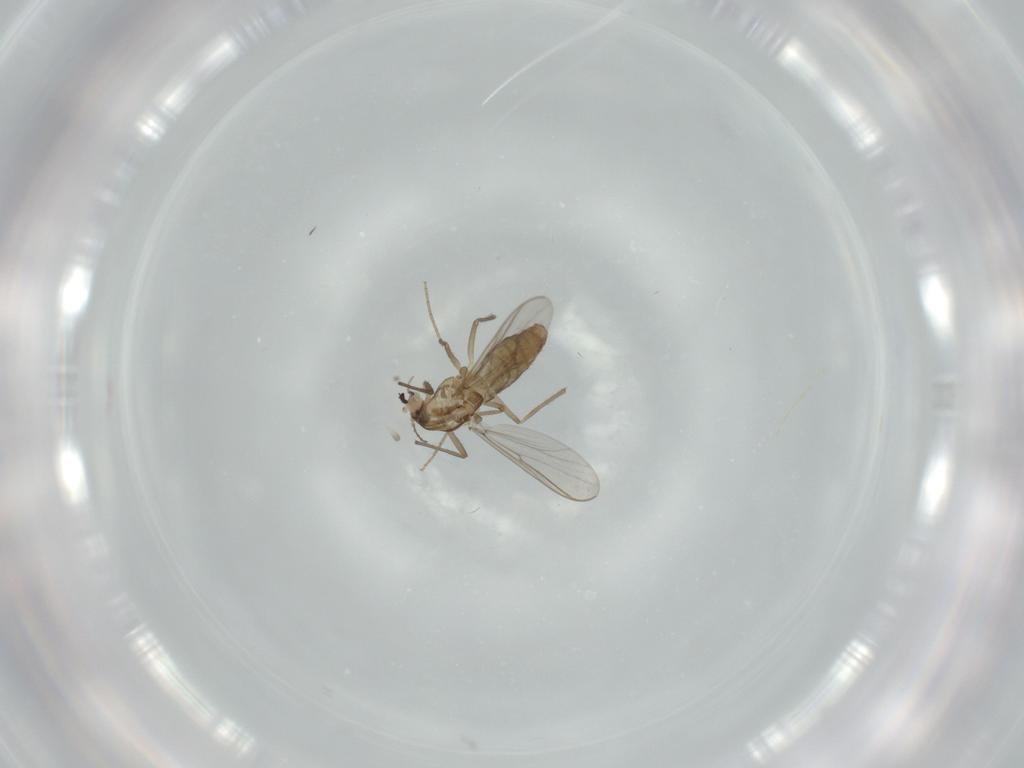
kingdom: Animalia
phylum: Arthropoda
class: Insecta
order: Diptera
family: Chironomidae
